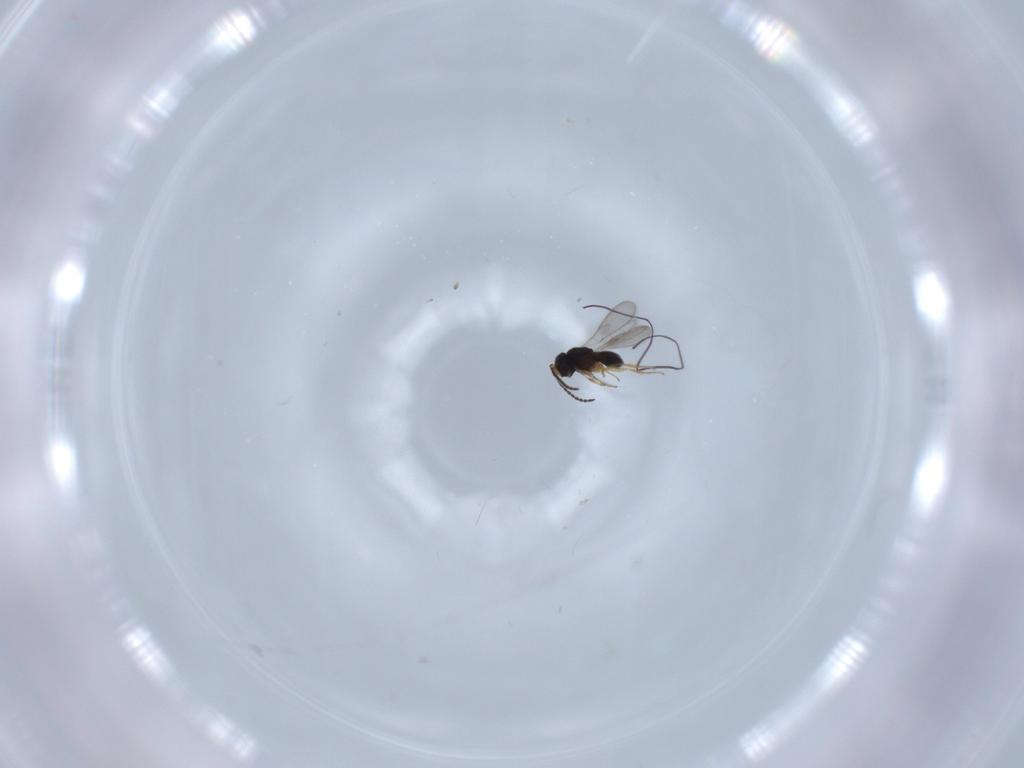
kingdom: Animalia
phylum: Arthropoda
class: Insecta
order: Hymenoptera
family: Scelionidae
